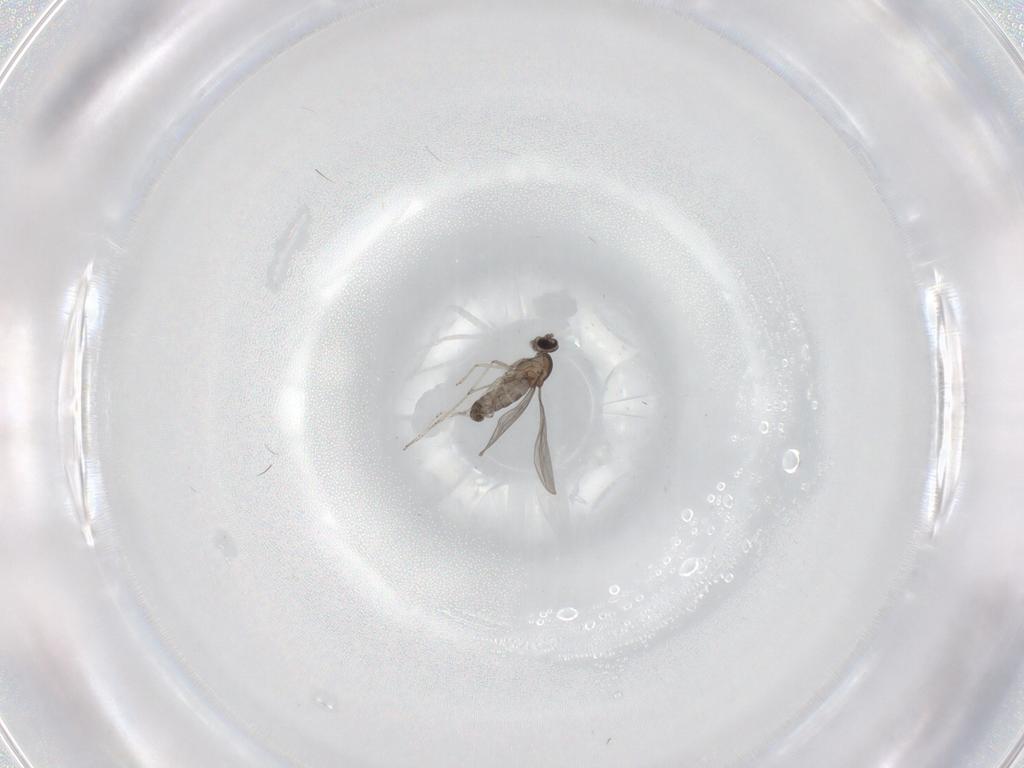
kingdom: Animalia
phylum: Arthropoda
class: Insecta
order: Diptera
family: Cecidomyiidae
